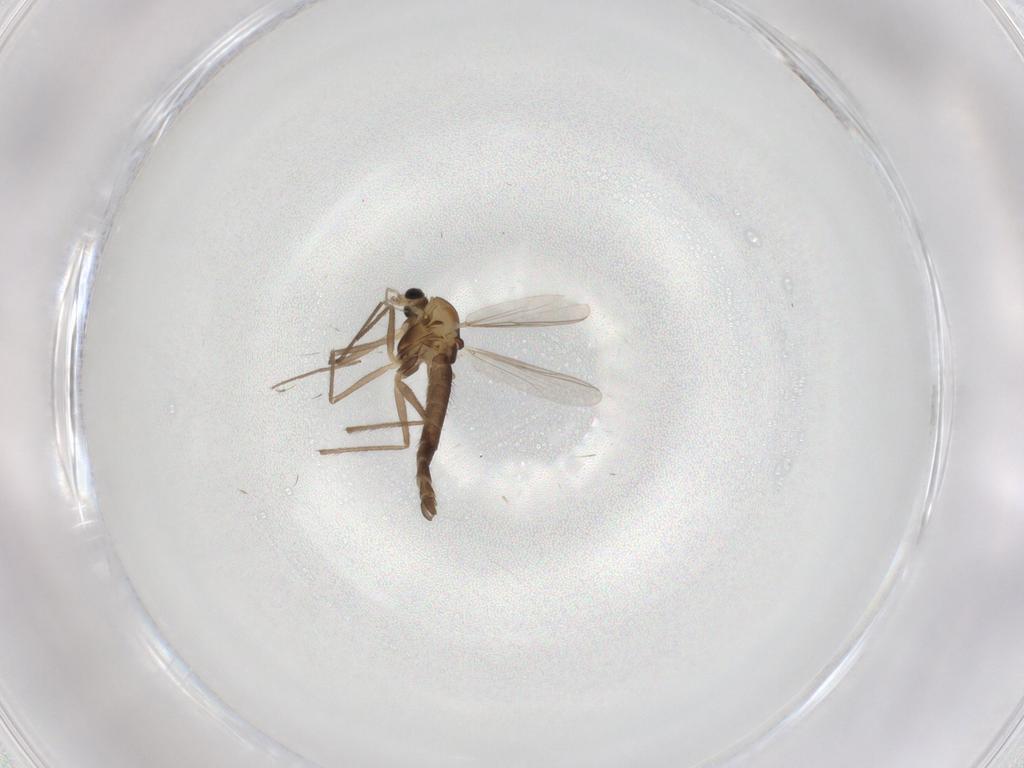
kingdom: Animalia
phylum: Arthropoda
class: Insecta
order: Diptera
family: Chironomidae
